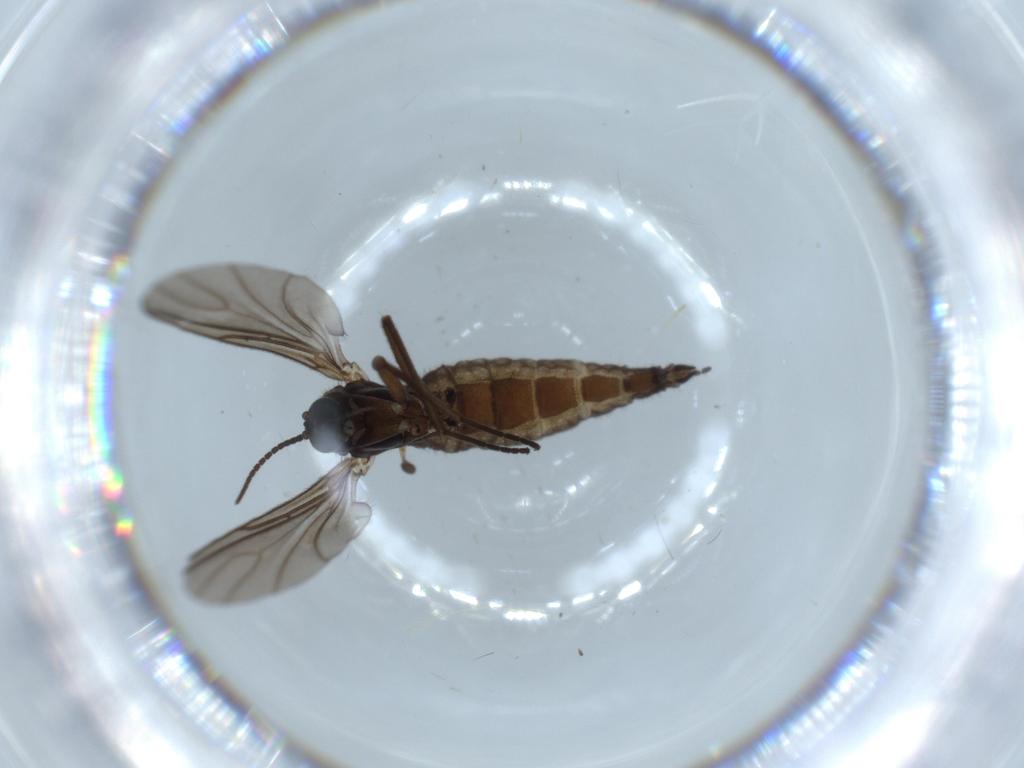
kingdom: Animalia
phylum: Arthropoda
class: Insecta
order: Diptera
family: Sciaridae
